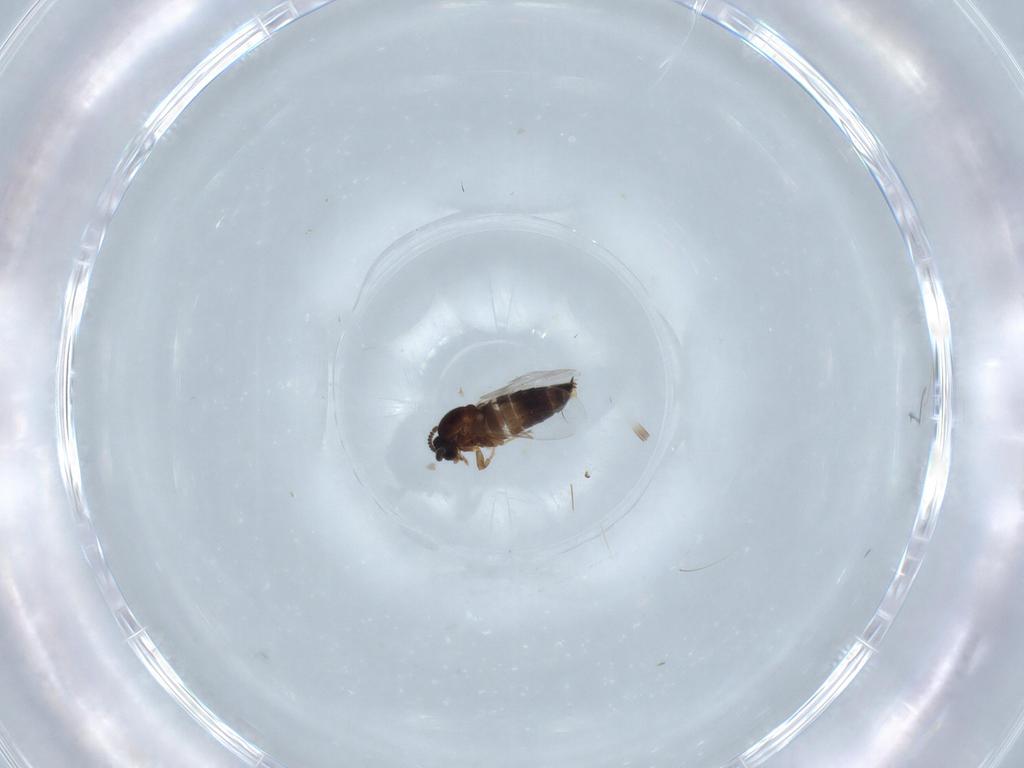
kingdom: Animalia
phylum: Arthropoda
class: Insecta
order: Diptera
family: Scatopsidae
